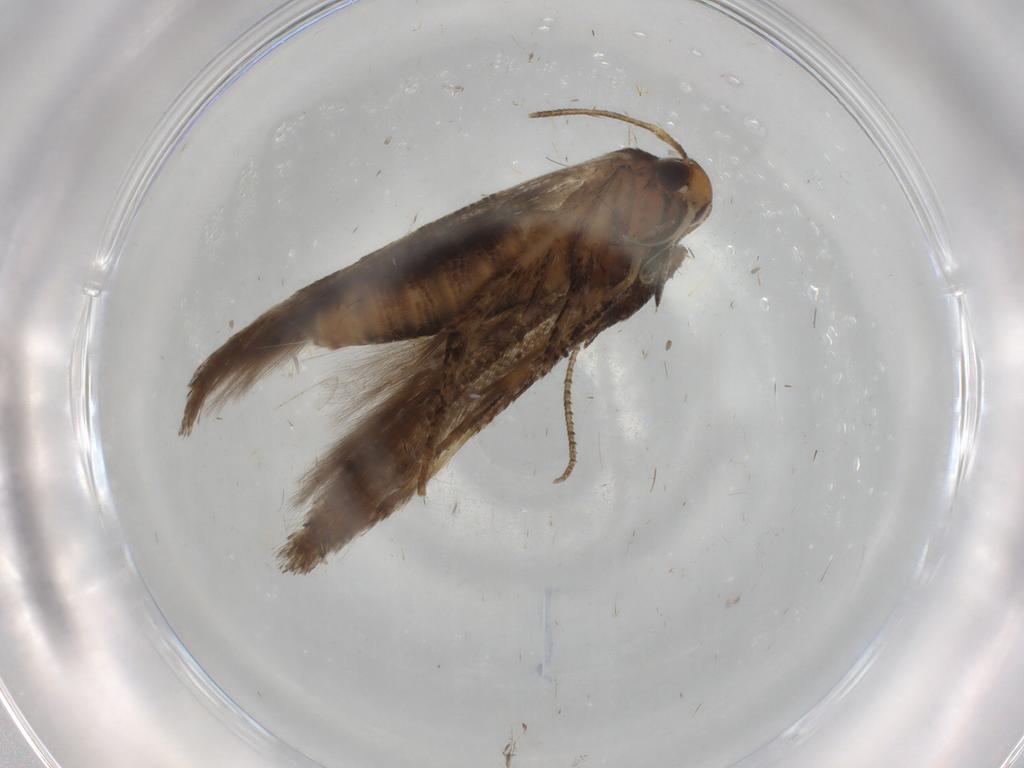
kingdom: Animalia
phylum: Arthropoda
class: Insecta
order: Lepidoptera
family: Cosmopterigidae
